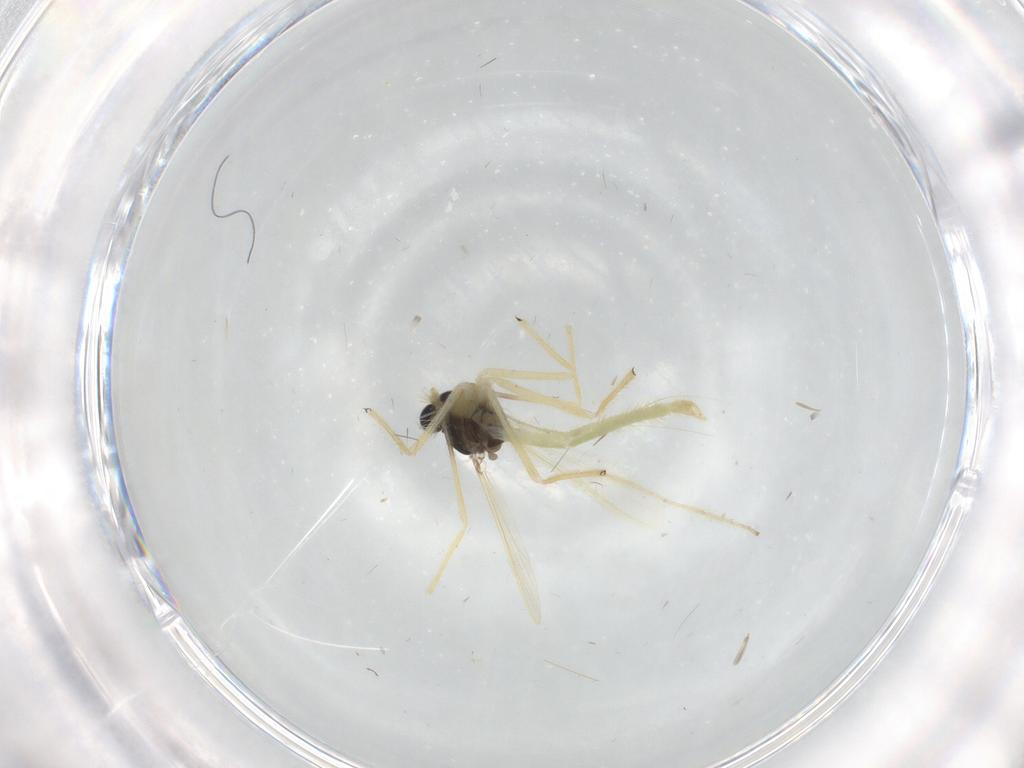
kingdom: Animalia
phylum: Arthropoda
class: Insecta
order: Diptera
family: Chironomidae
